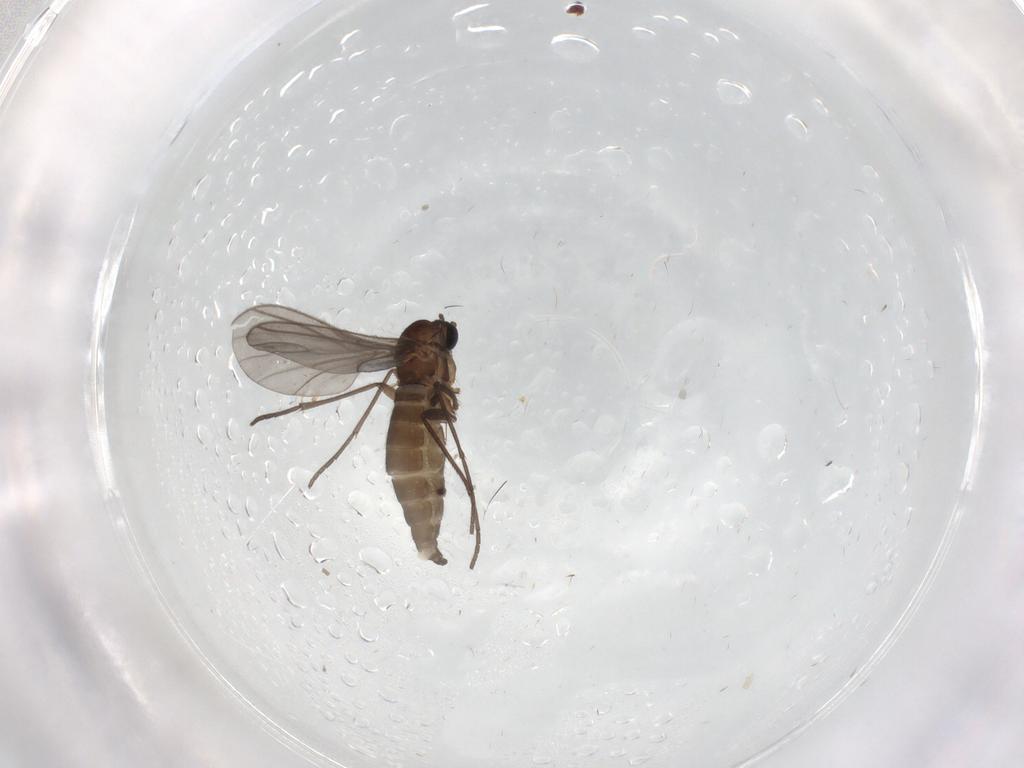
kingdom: Animalia
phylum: Arthropoda
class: Insecta
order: Diptera
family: Sciaridae
